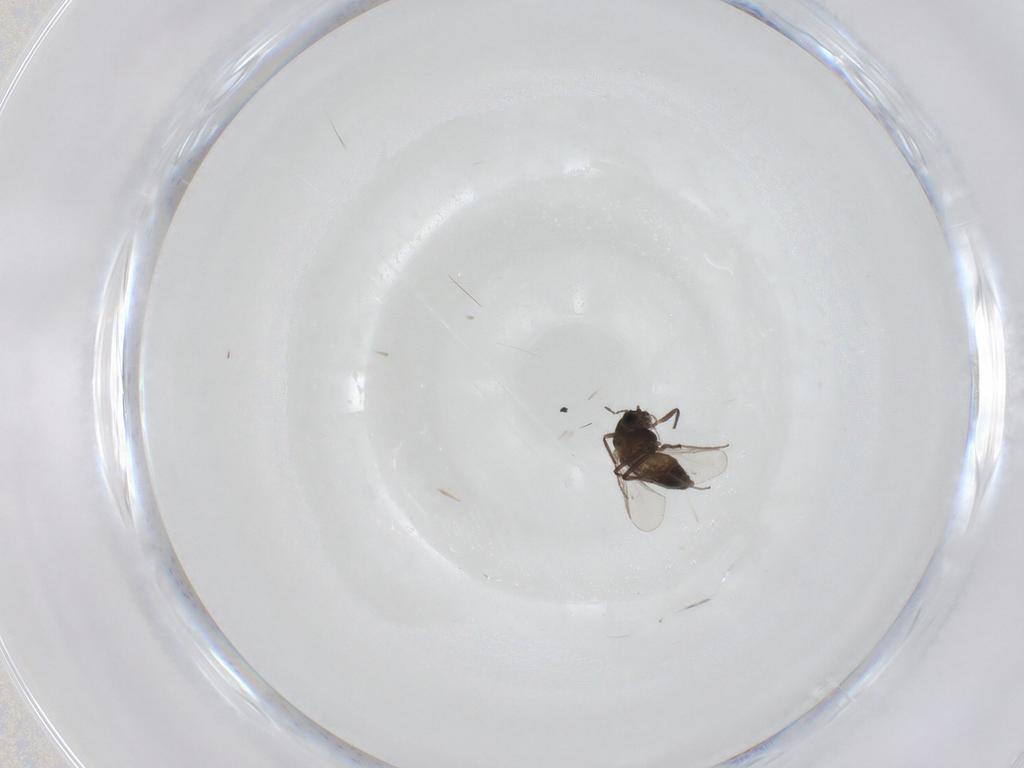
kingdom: Animalia
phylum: Arthropoda
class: Insecta
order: Diptera
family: Chironomidae
